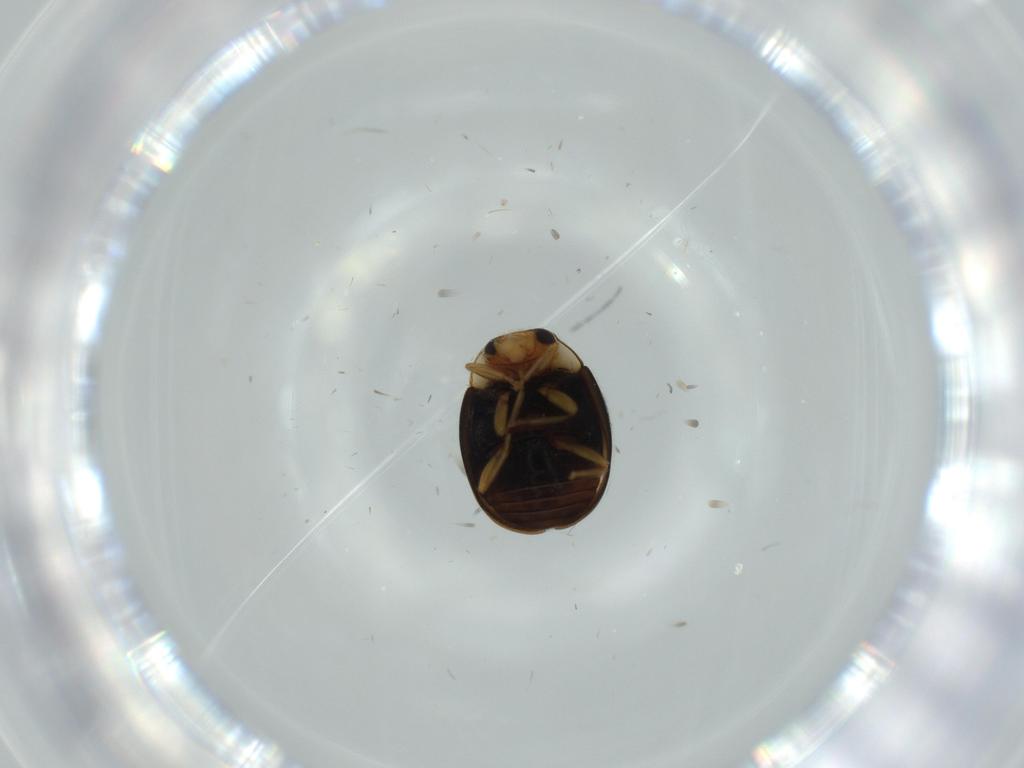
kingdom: Animalia
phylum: Arthropoda
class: Insecta
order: Coleoptera
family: Coccinellidae
